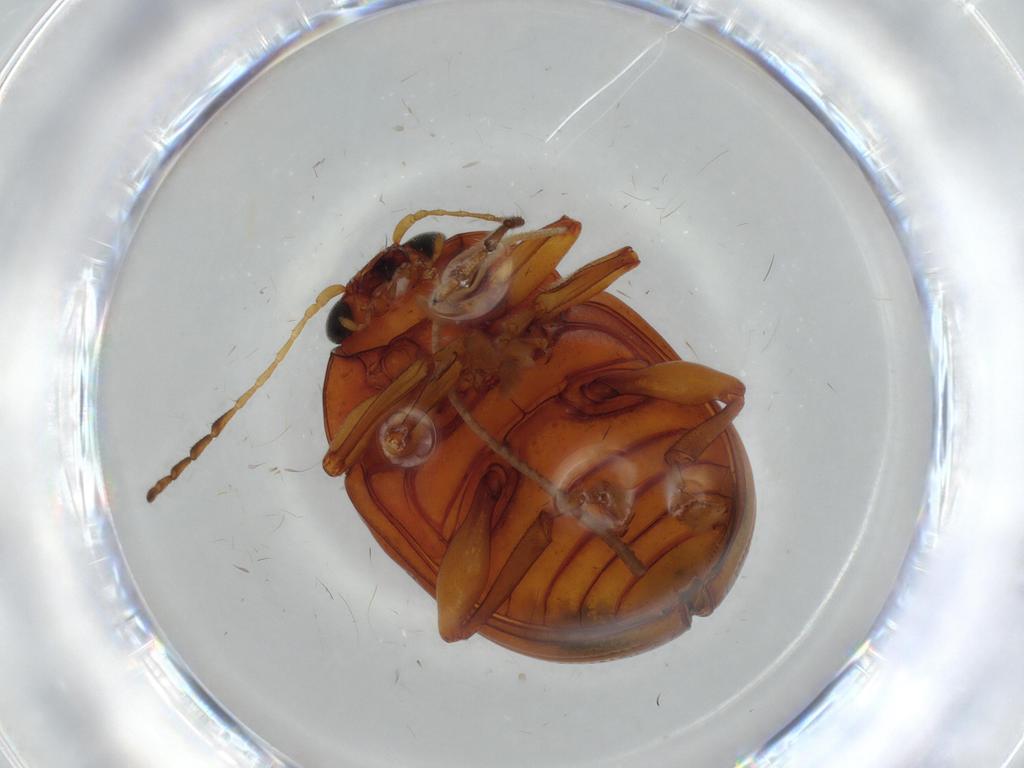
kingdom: Animalia
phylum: Arthropoda
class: Insecta
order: Coleoptera
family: Chrysomelidae
